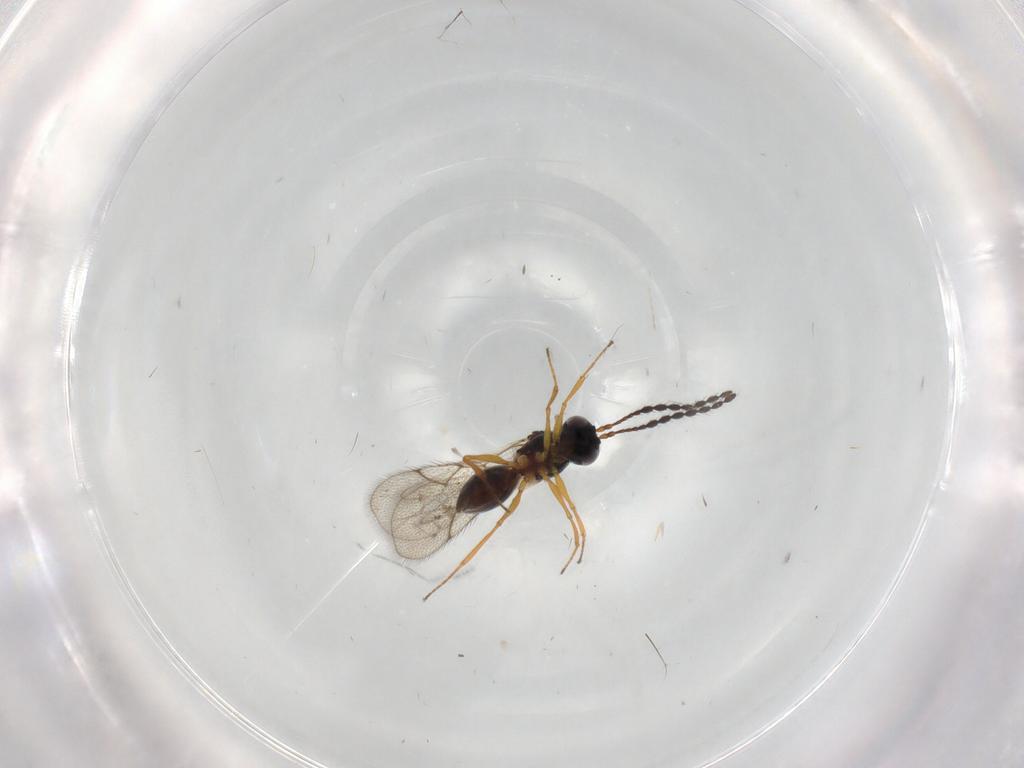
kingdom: Animalia
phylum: Arthropoda
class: Insecta
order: Hymenoptera
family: Figitidae
